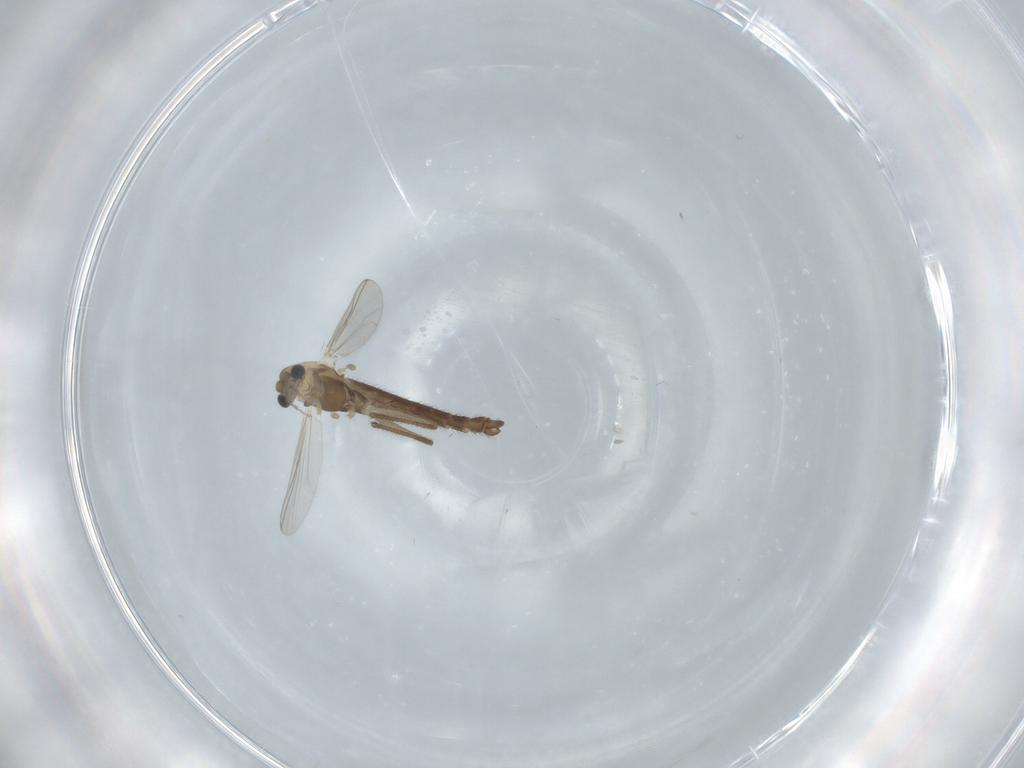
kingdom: Animalia
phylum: Arthropoda
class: Insecta
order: Diptera
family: Chironomidae
